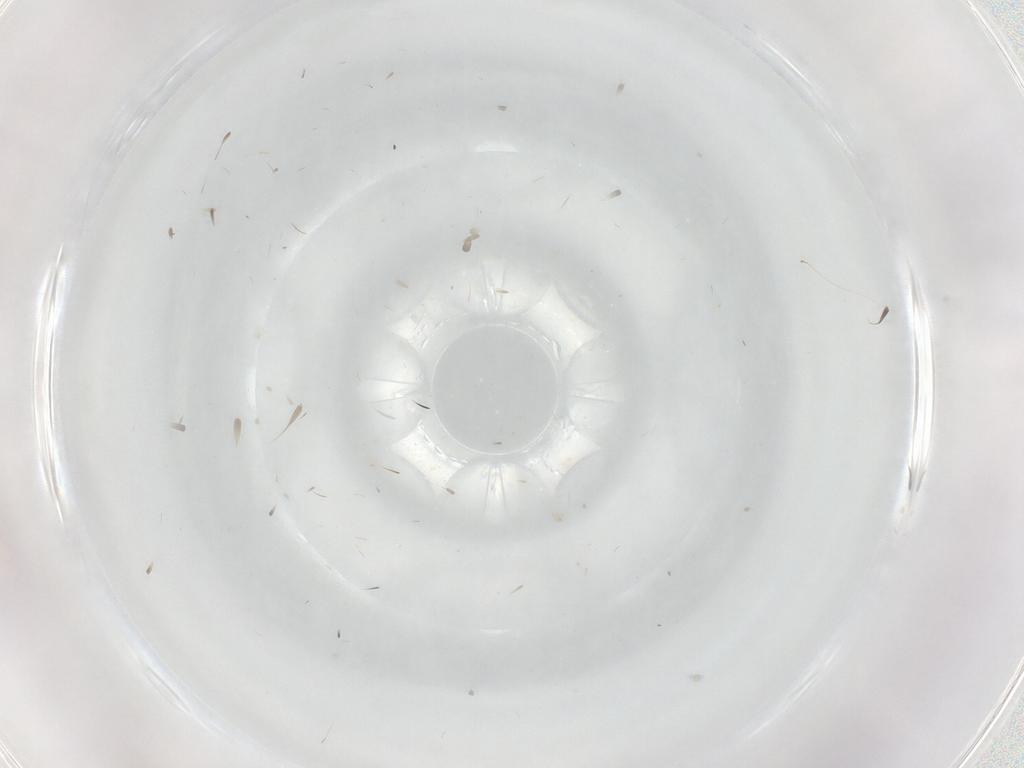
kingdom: Animalia
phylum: Arthropoda
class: Insecta
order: Diptera
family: Cecidomyiidae
